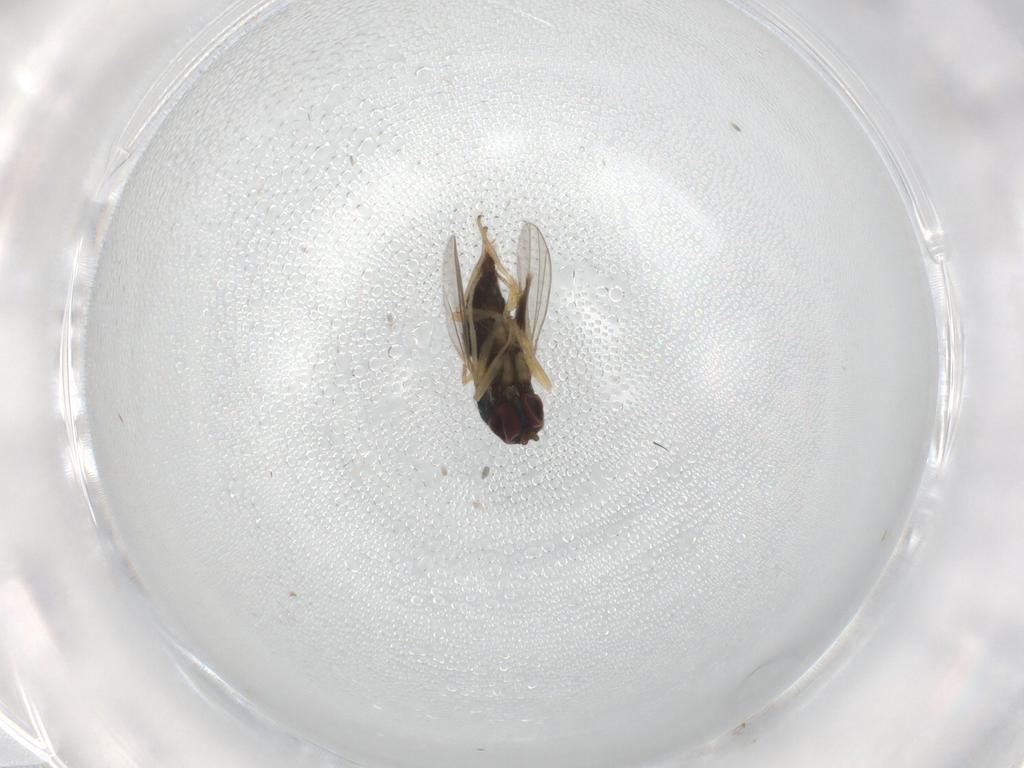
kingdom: Animalia
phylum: Arthropoda
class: Insecta
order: Diptera
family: Dolichopodidae
